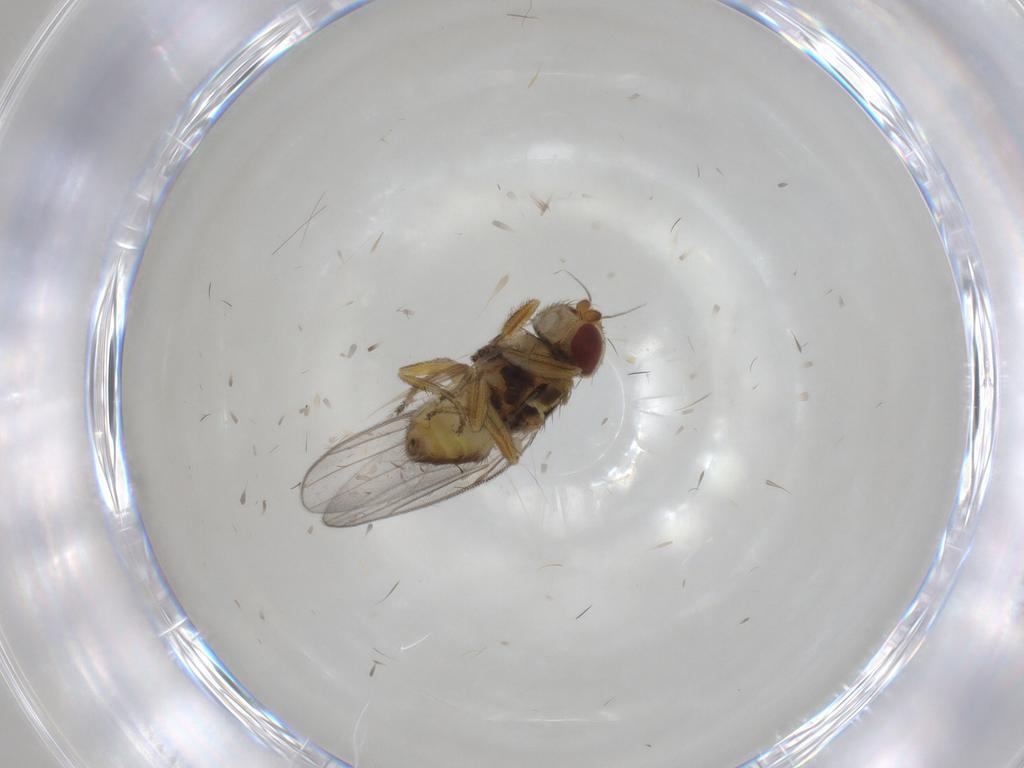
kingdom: Animalia
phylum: Arthropoda
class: Insecta
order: Diptera
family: Chloropidae
